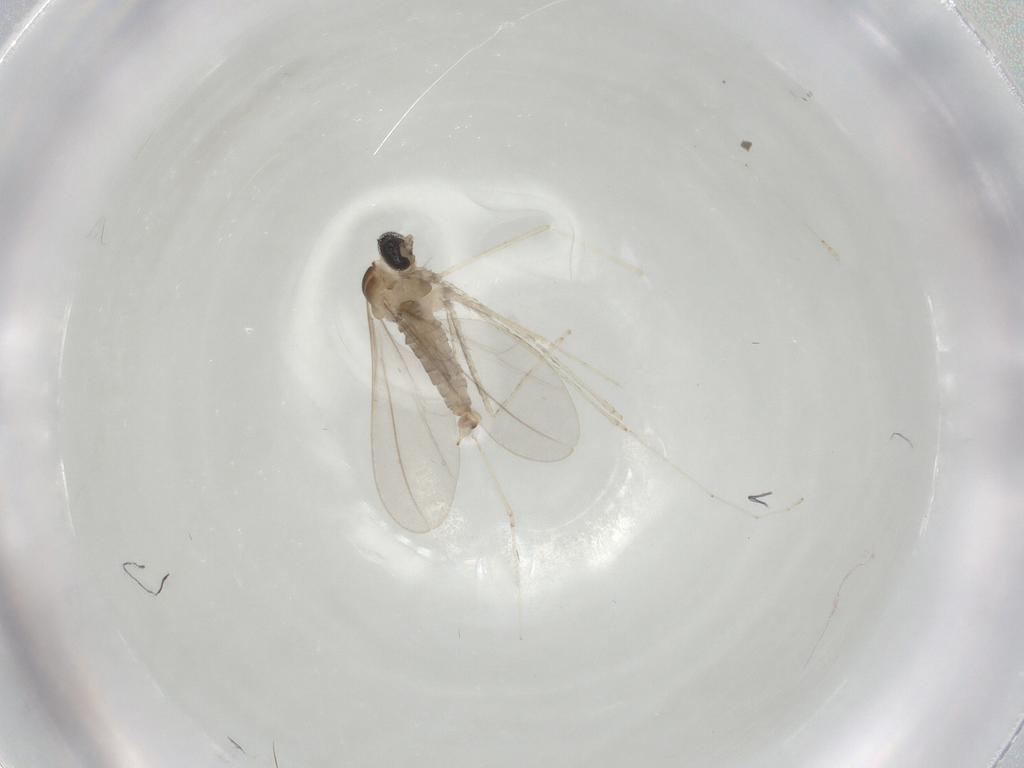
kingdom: Animalia
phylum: Arthropoda
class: Insecta
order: Diptera
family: Cecidomyiidae
